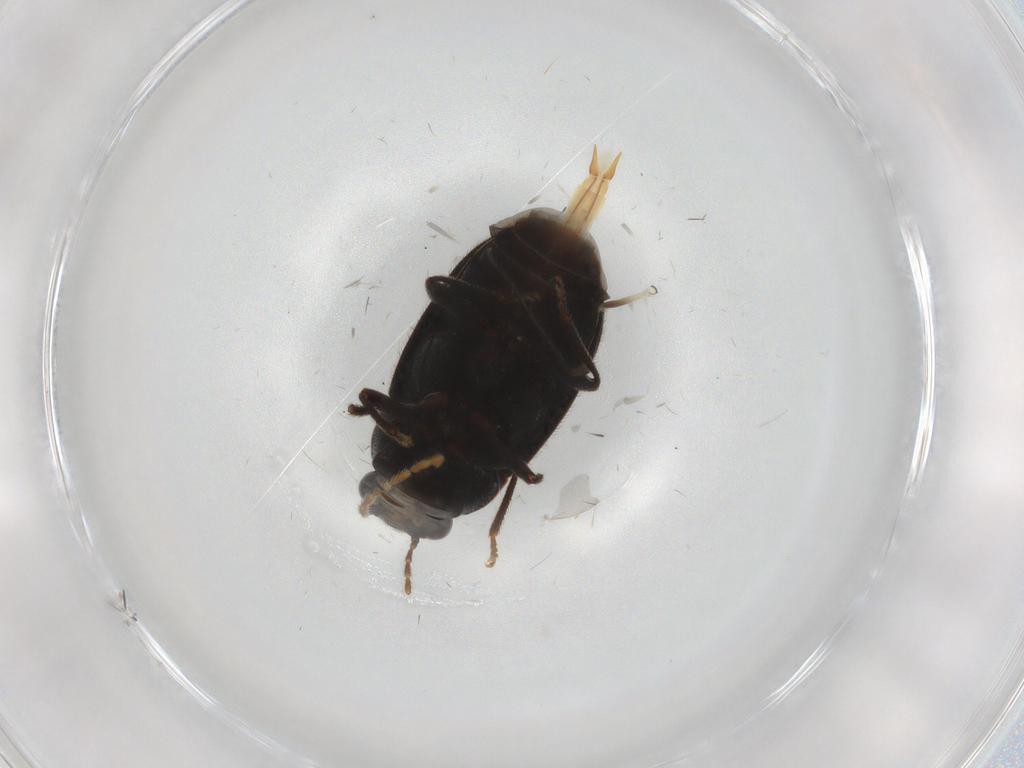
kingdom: Animalia
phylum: Arthropoda
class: Insecta
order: Coleoptera
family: Ptilodactylidae
